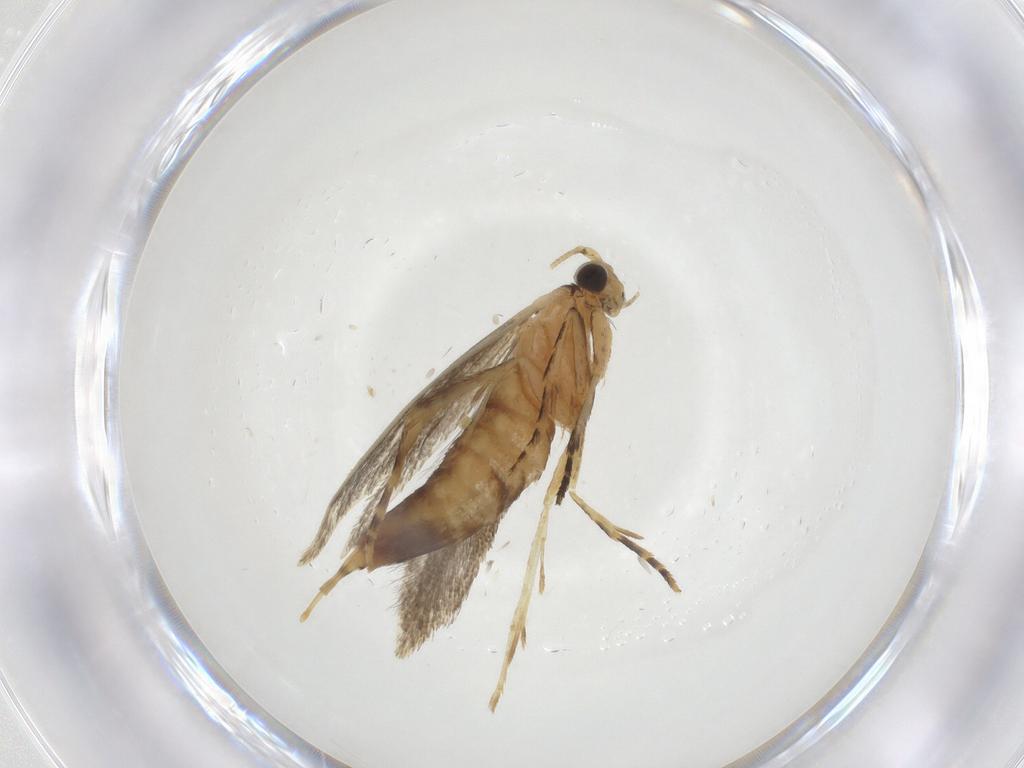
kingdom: Animalia
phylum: Arthropoda
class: Insecta
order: Lepidoptera
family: Tineidae
